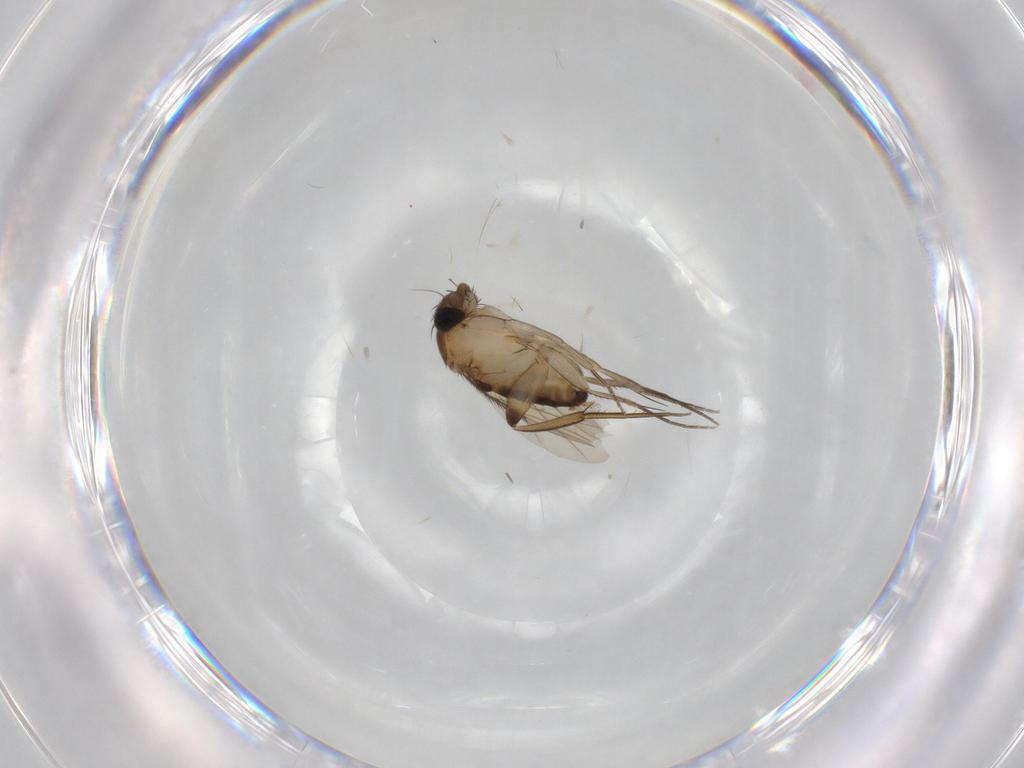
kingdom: Animalia
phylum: Arthropoda
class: Insecta
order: Diptera
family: Phoridae
